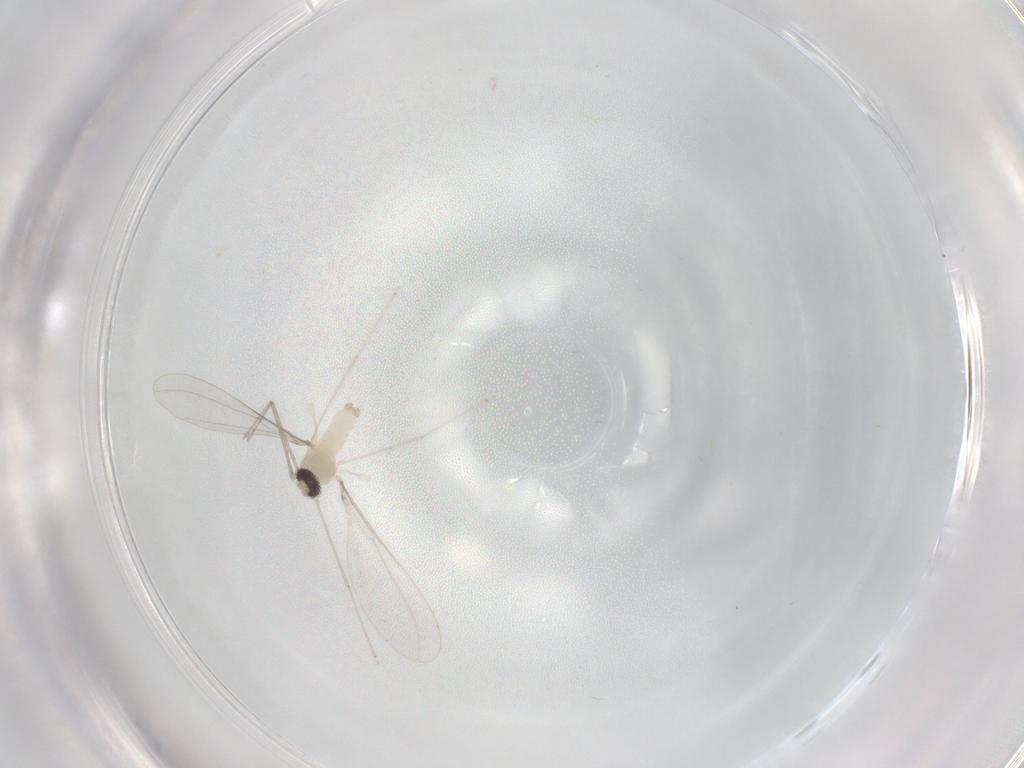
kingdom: Animalia
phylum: Arthropoda
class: Insecta
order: Diptera
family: Cecidomyiidae
